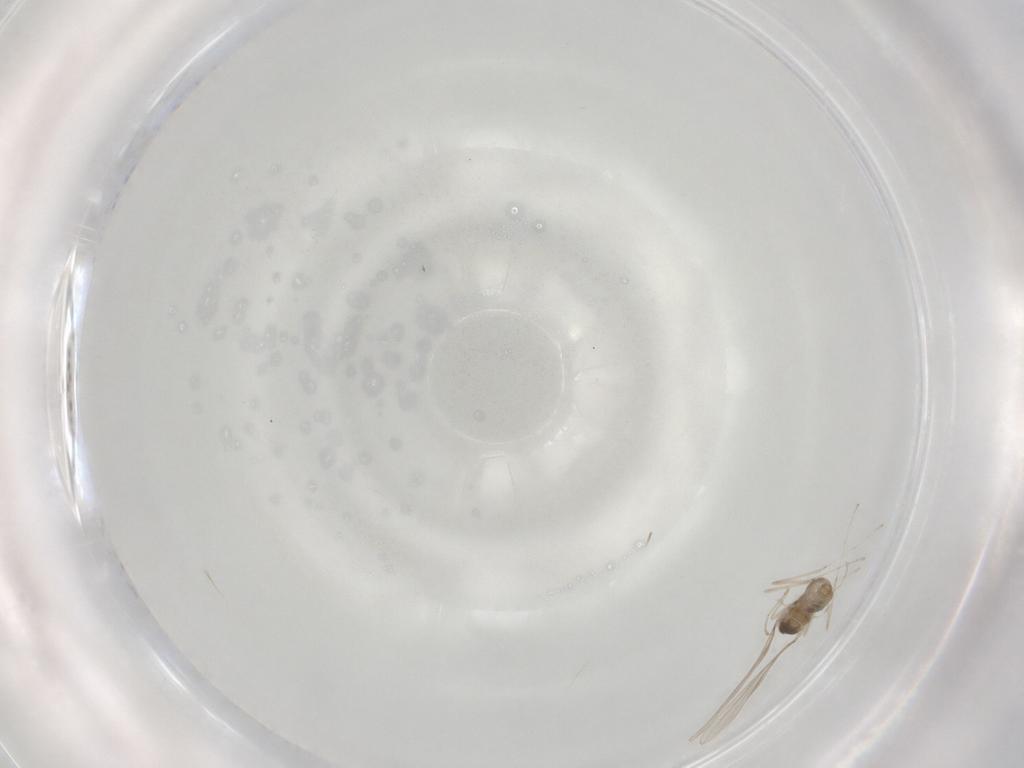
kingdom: Animalia
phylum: Arthropoda
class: Insecta
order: Diptera
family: Cecidomyiidae
